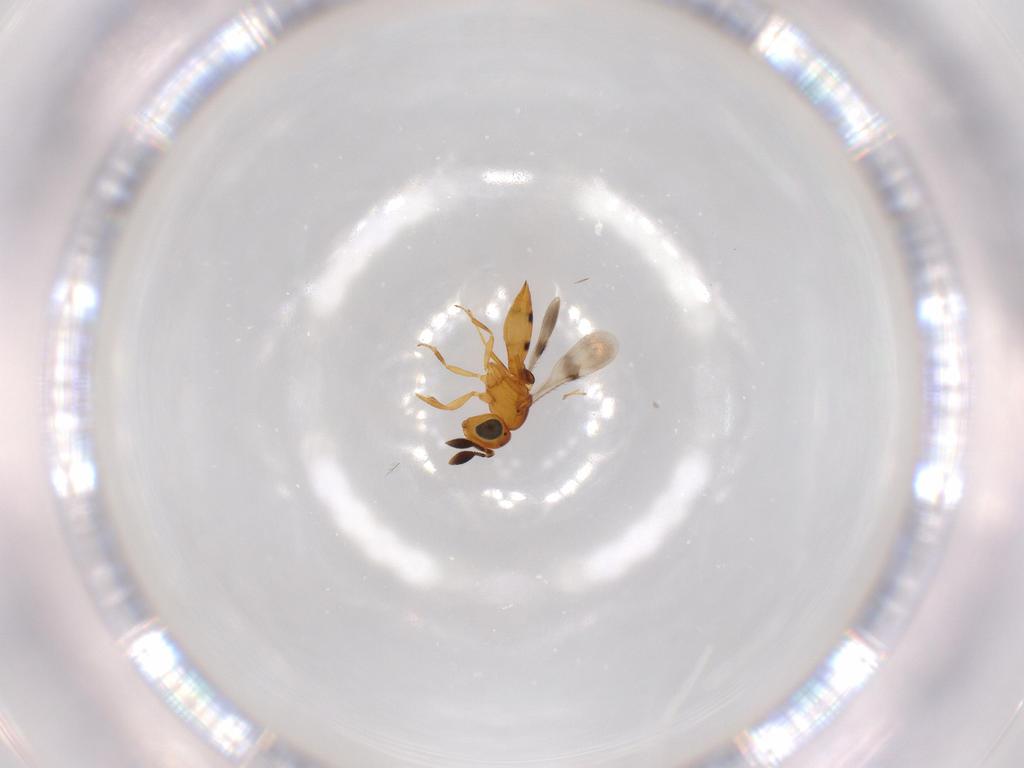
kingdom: Animalia
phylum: Arthropoda
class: Insecta
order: Hymenoptera
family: Scelionidae
